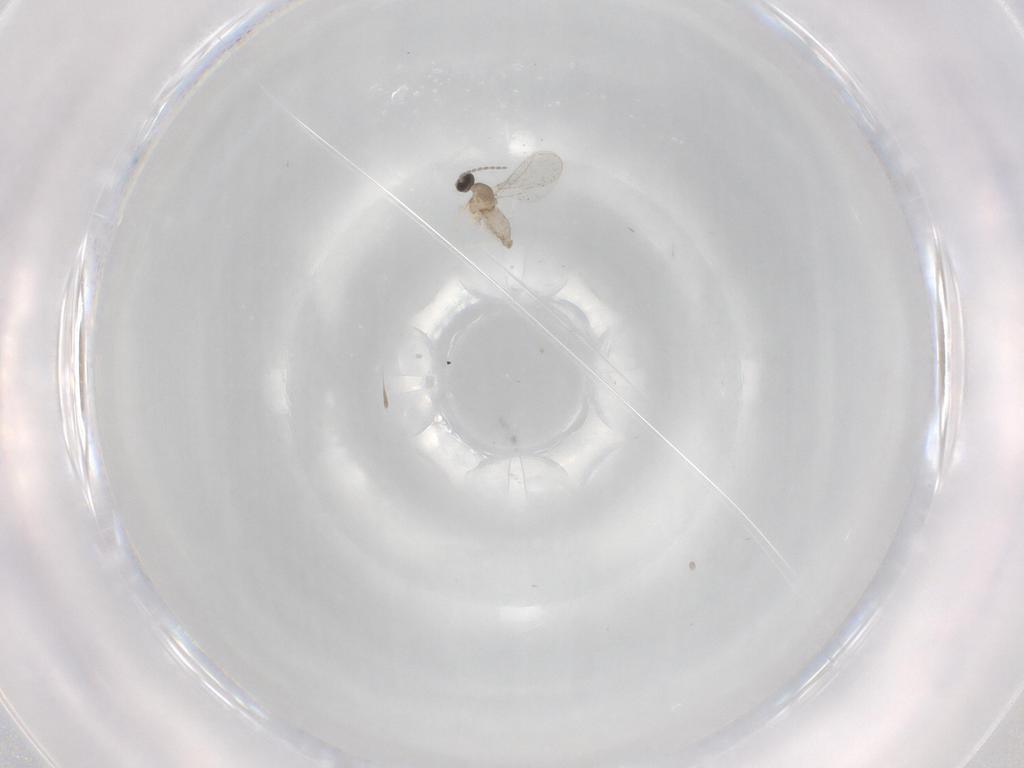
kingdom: Animalia
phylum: Arthropoda
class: Insecta
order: Diptera
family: Cecidomyiidae
